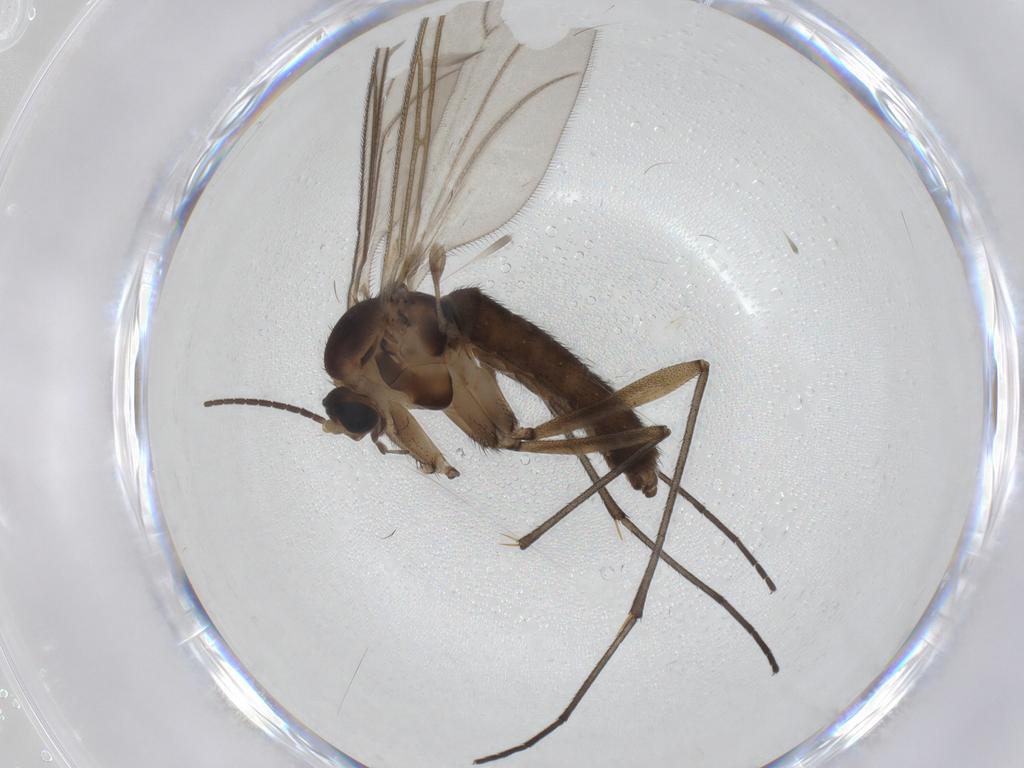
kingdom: Animalia
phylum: Arthropoda
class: Insecta
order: Diptera
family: Sciaridae
